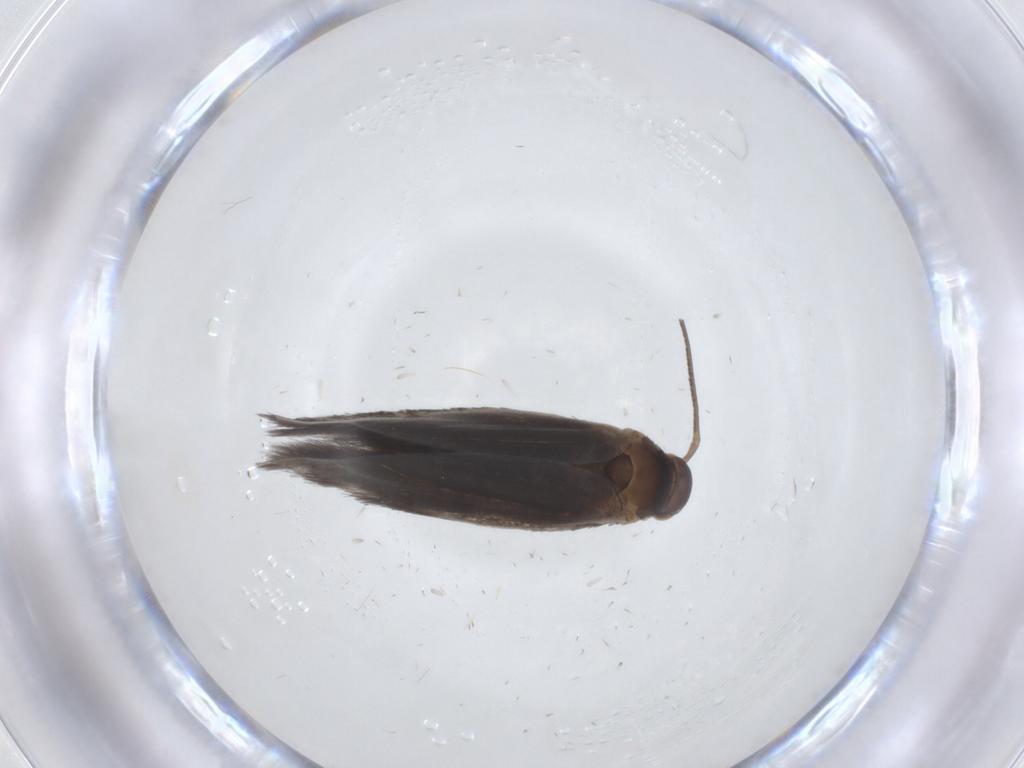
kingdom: Animalia
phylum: Arthropoda
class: Insecta
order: Lepidoptera
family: Elachistidae
